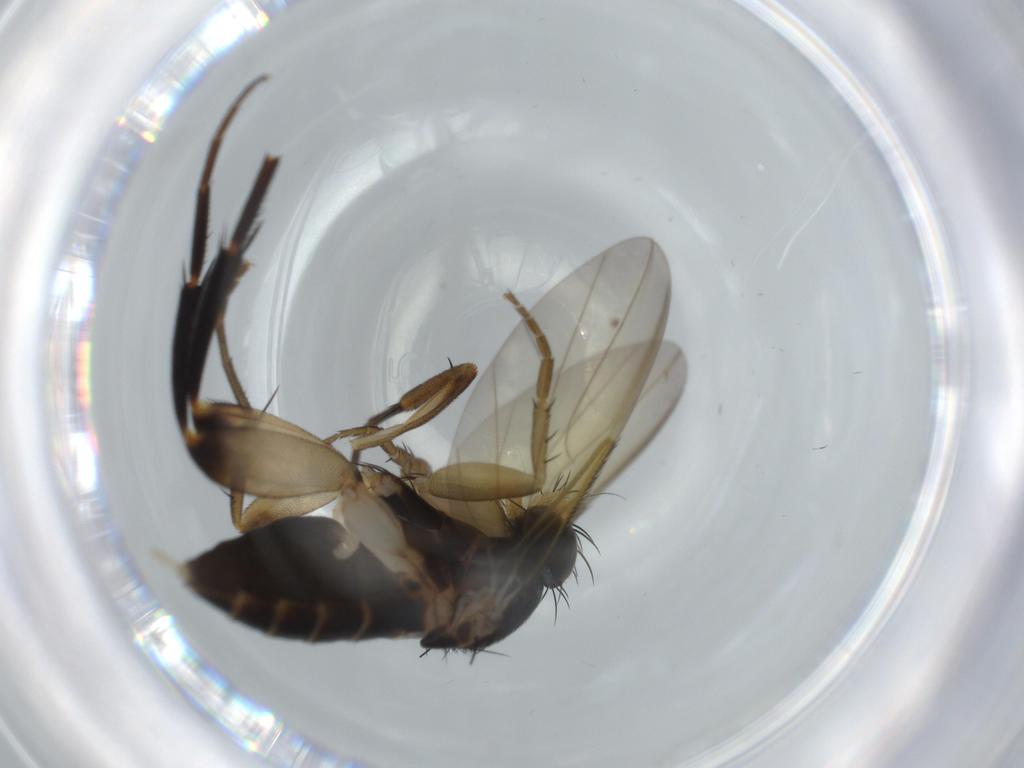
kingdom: Animalia
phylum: Arthropoda
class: Insecta
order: Diptera
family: Phoridae
